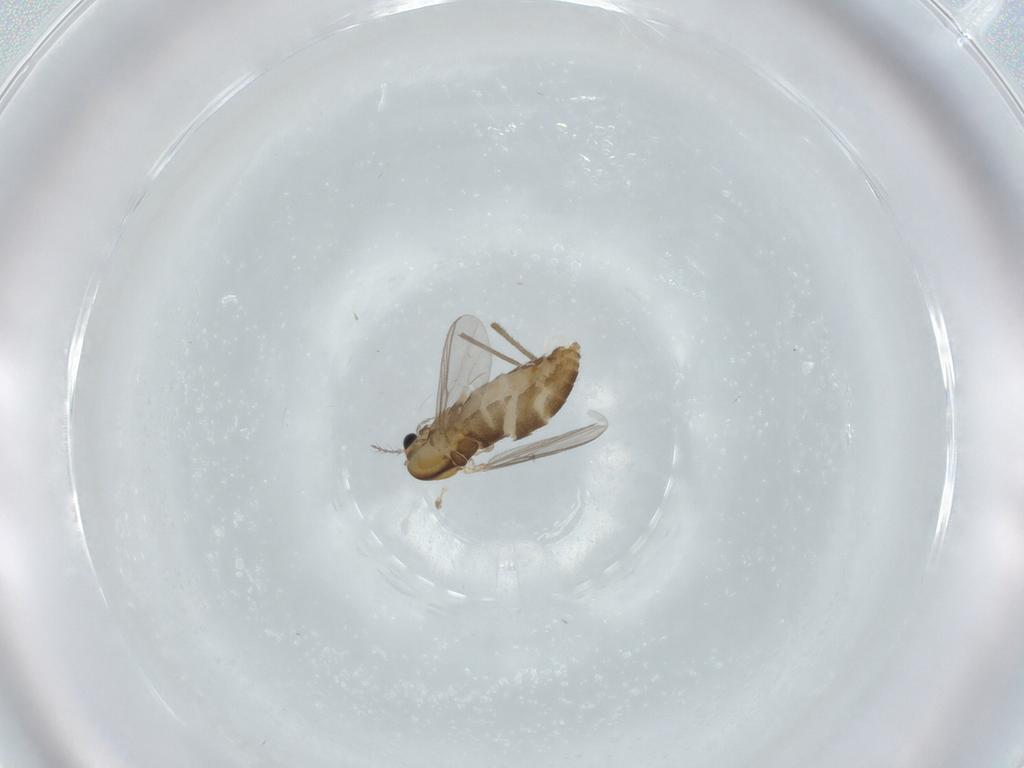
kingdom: Animalia
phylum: Arthropoda
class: Insecta
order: Diptera
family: Chironomidae
